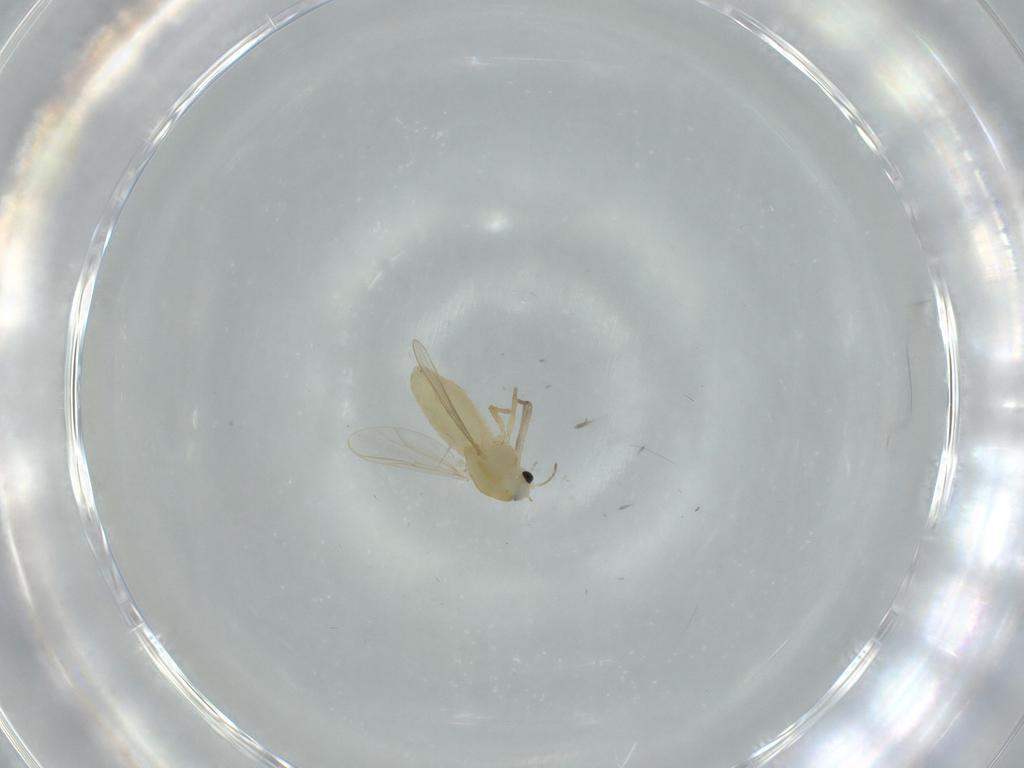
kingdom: Animalia
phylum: Arthropoda
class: Insecta
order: Diptera
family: Chironomidae
